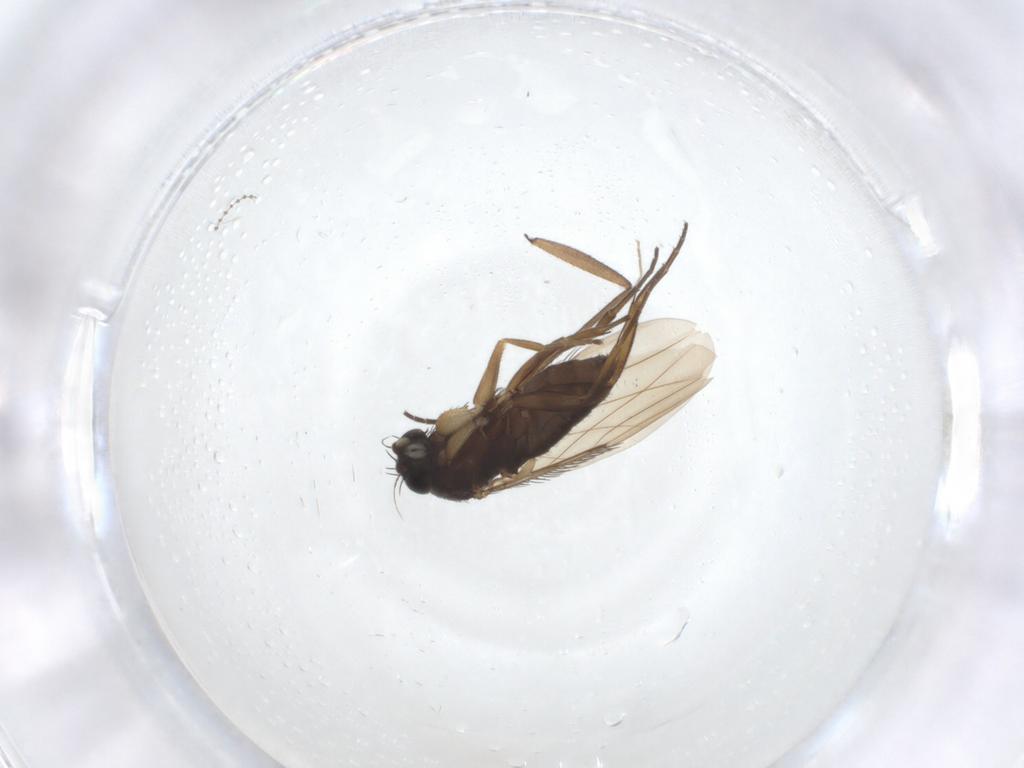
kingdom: Animalia
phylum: Arthropoda
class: Insecta
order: Diptera
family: Phoridae
